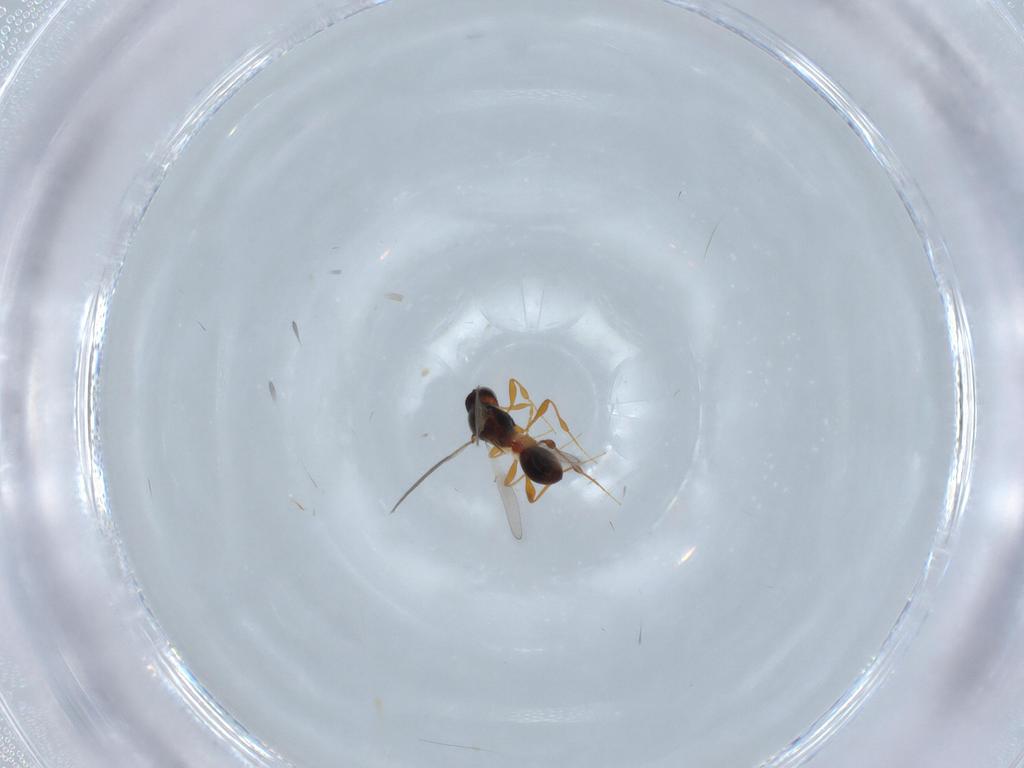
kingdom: Animalia
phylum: Arthropoda
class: Insecta
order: Hymenoptera
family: Platygastridae
